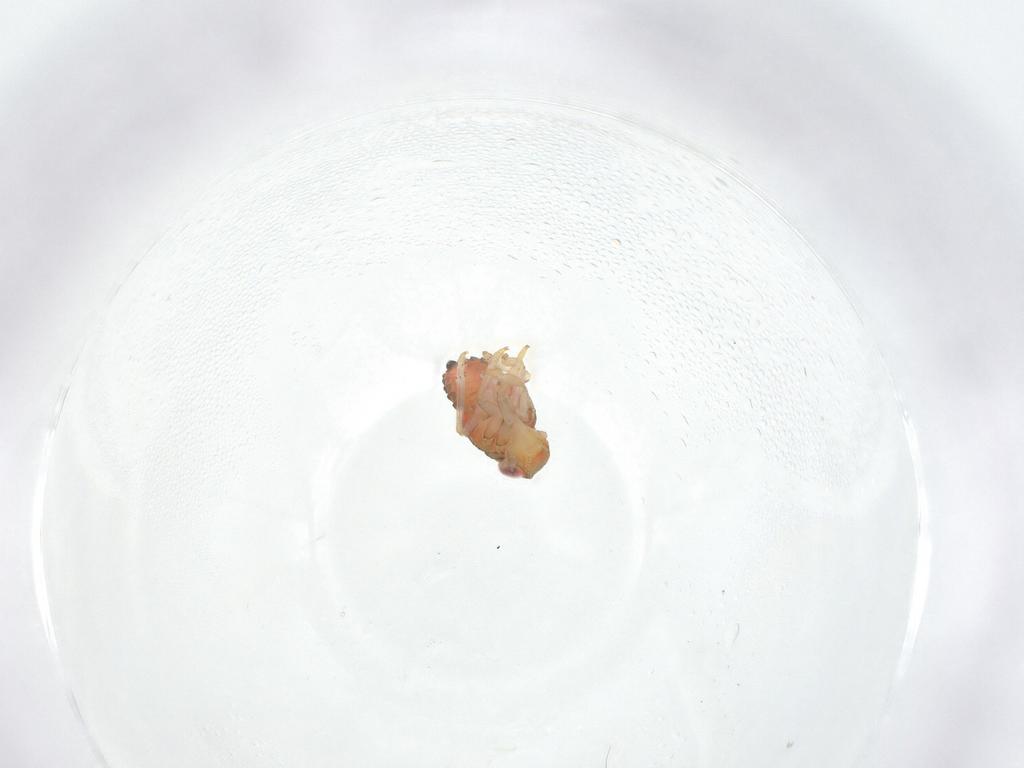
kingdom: Animalia
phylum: Arthropoda
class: Insecta
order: Hemiptera
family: Issidae
